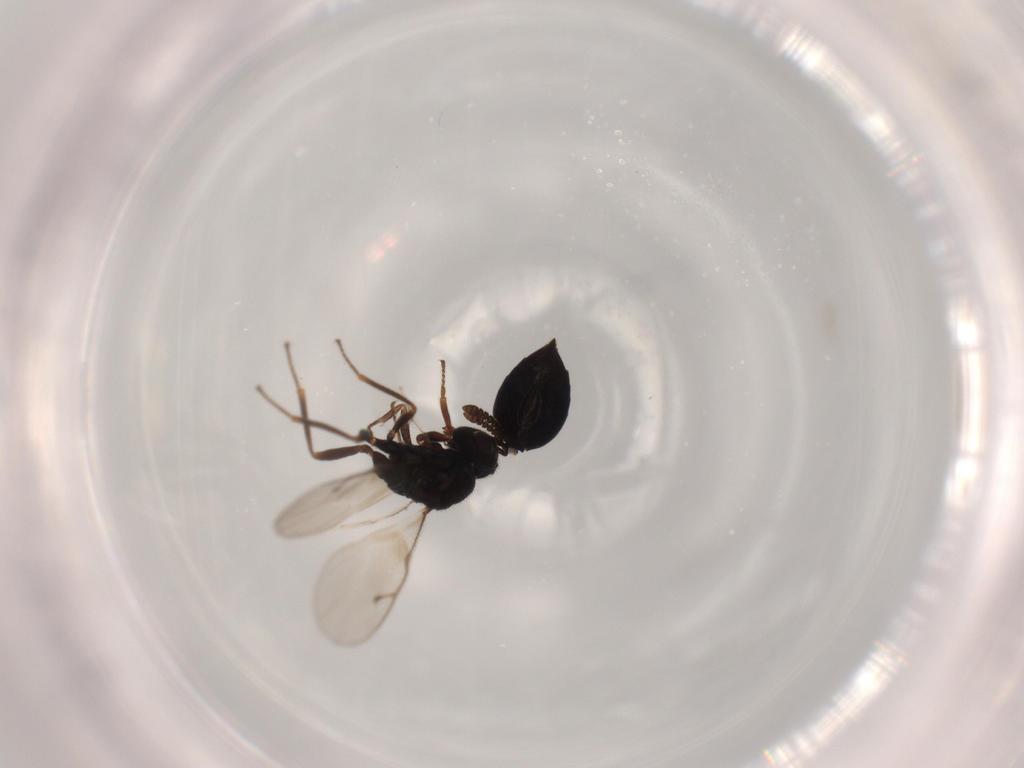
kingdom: Animalia
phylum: Arthropoda
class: Insecta
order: Hymenoptera
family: Pteromalidae
